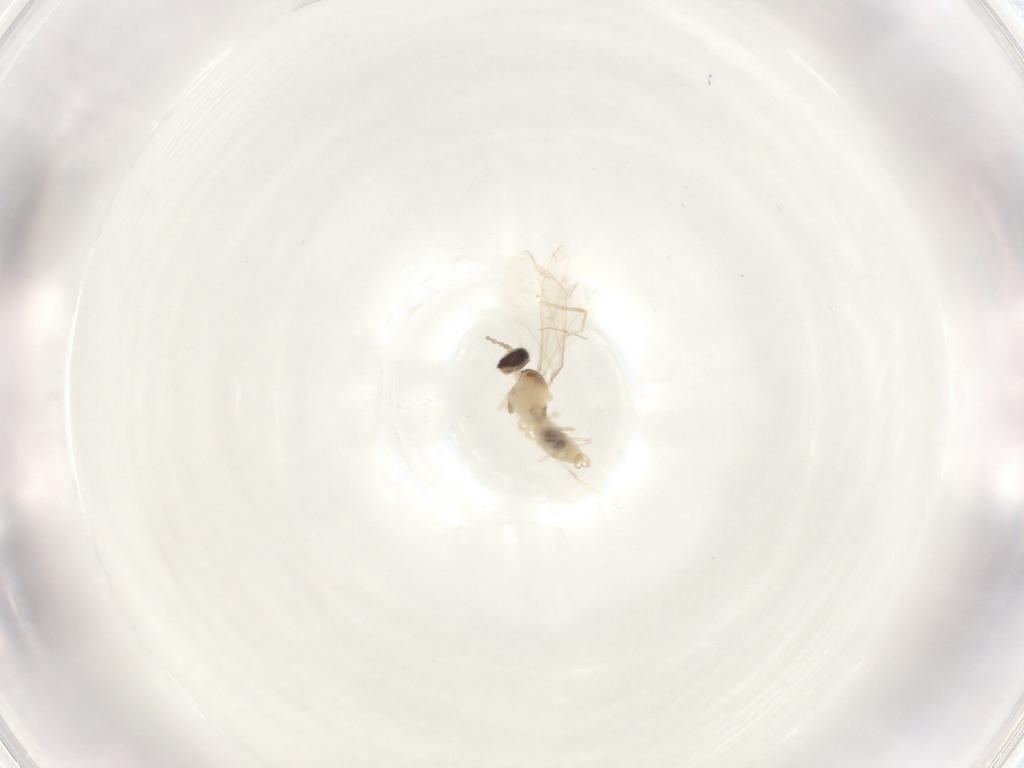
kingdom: Animalia
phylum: Arthropoda
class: Insecta
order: Diptera
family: Cecidomyiidae
